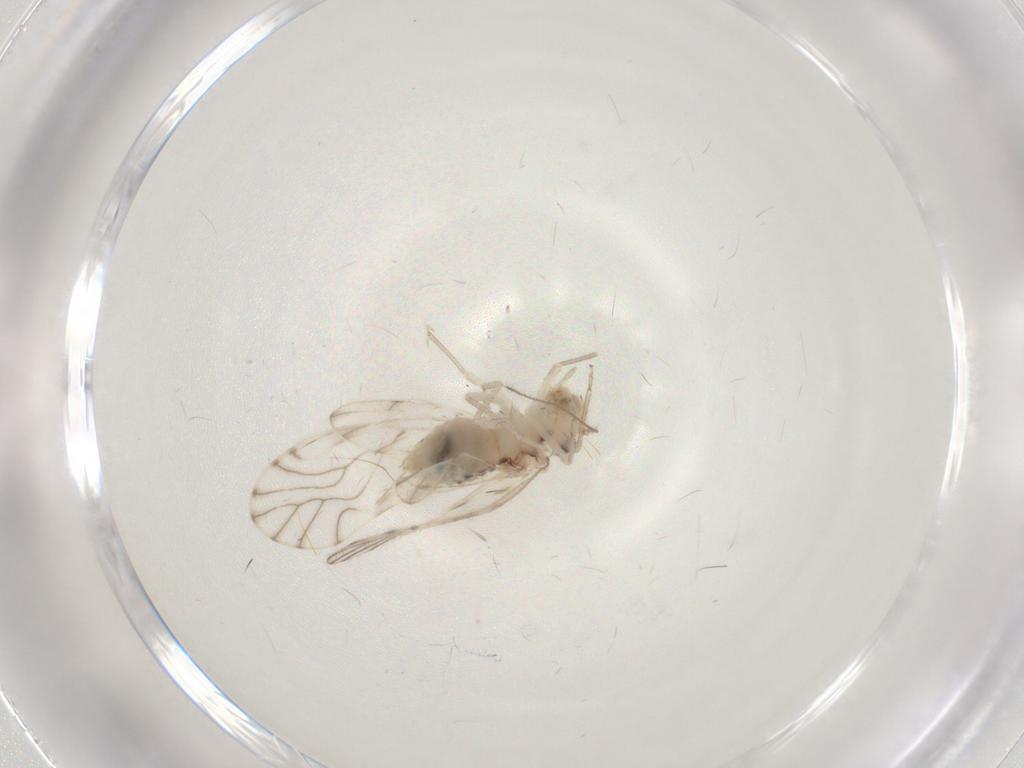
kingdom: Animalia
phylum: Arthropoda
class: Insecta
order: Psocodea
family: Philotarsidae
